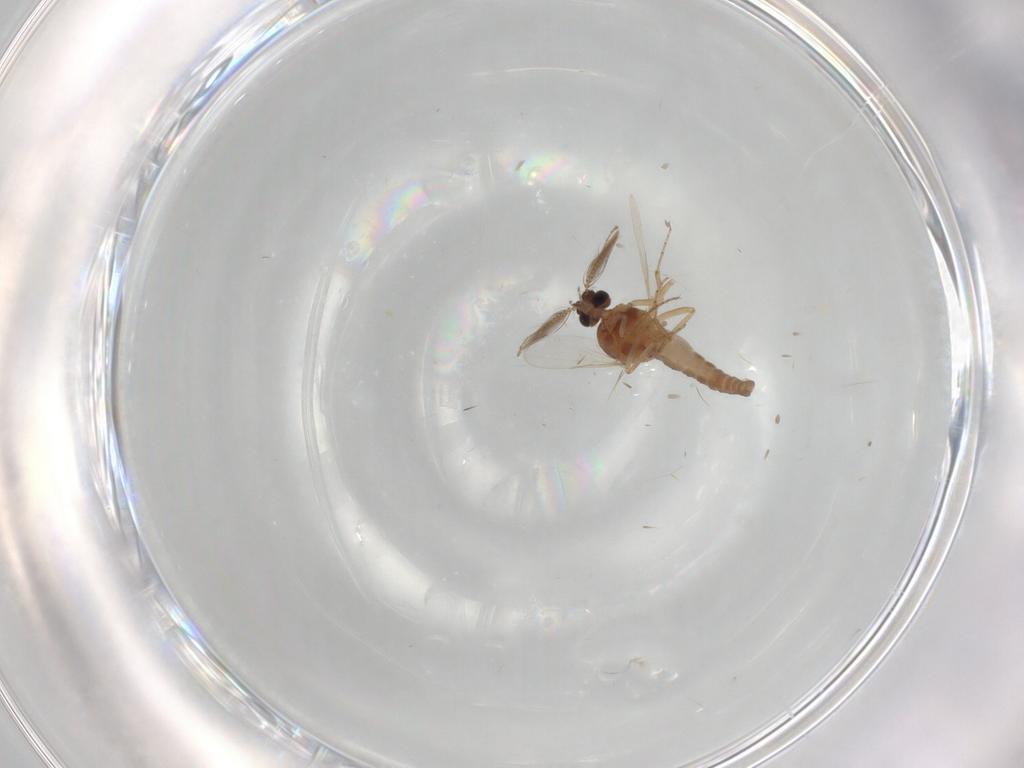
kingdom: Animalia
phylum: Arthropoda
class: Insecta
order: Diptera
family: Ceratopogonidae
